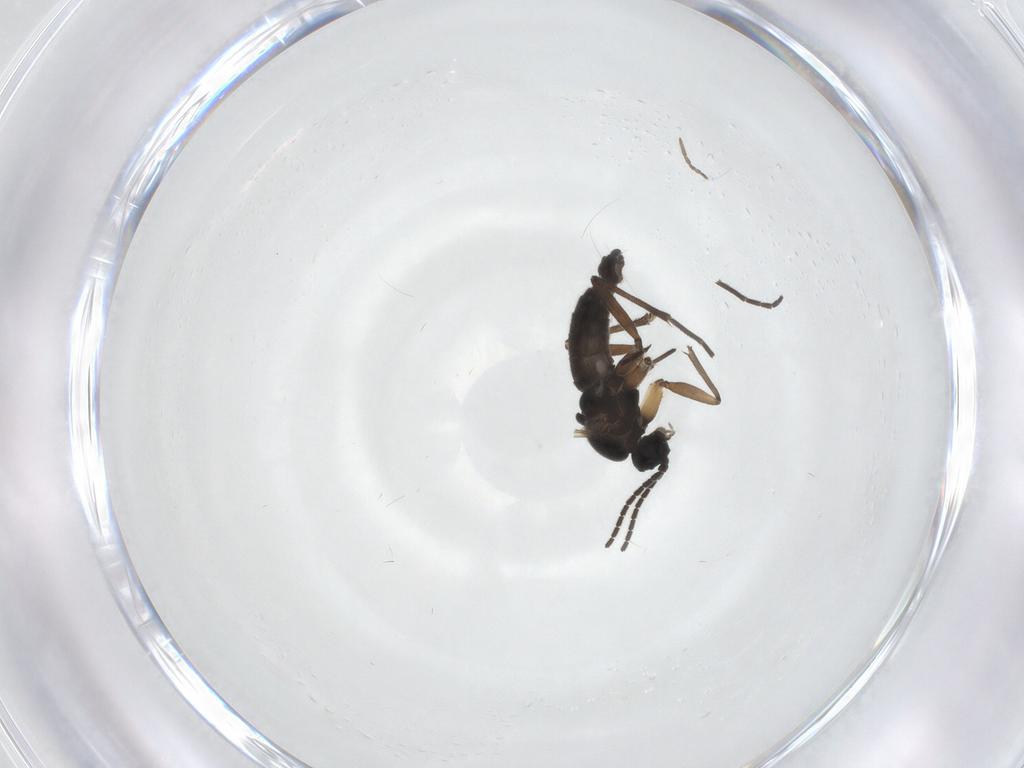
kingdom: Animalia
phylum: Arthropoda
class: Insecta
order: Diptera
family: Sciaridae
